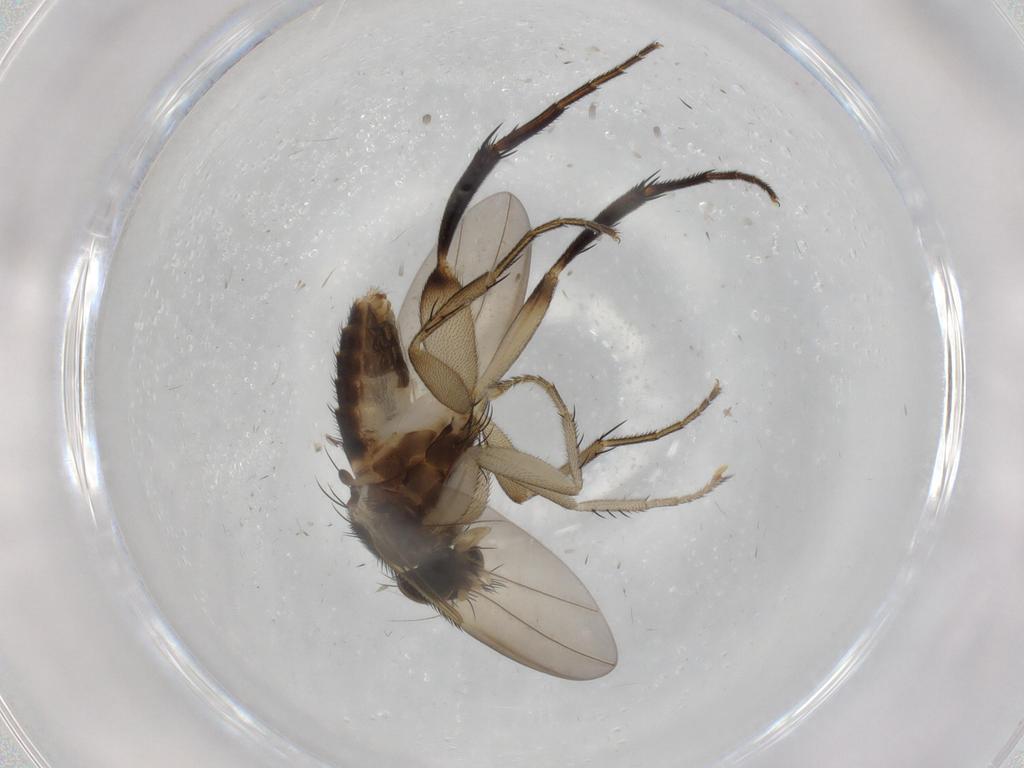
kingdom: Animalia
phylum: Arthropoda
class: Insecta
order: Diptera
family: Phoridae
